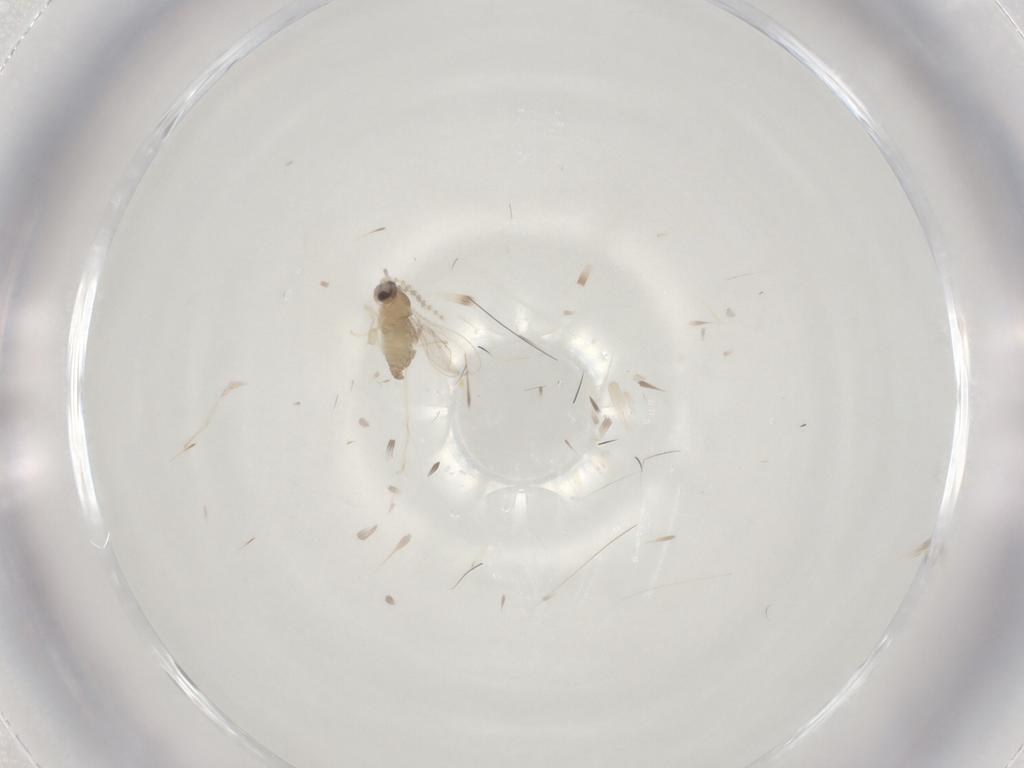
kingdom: Animalia
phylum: Arthropoda
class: Insecta
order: Diptera
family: Cecidomyiidae
